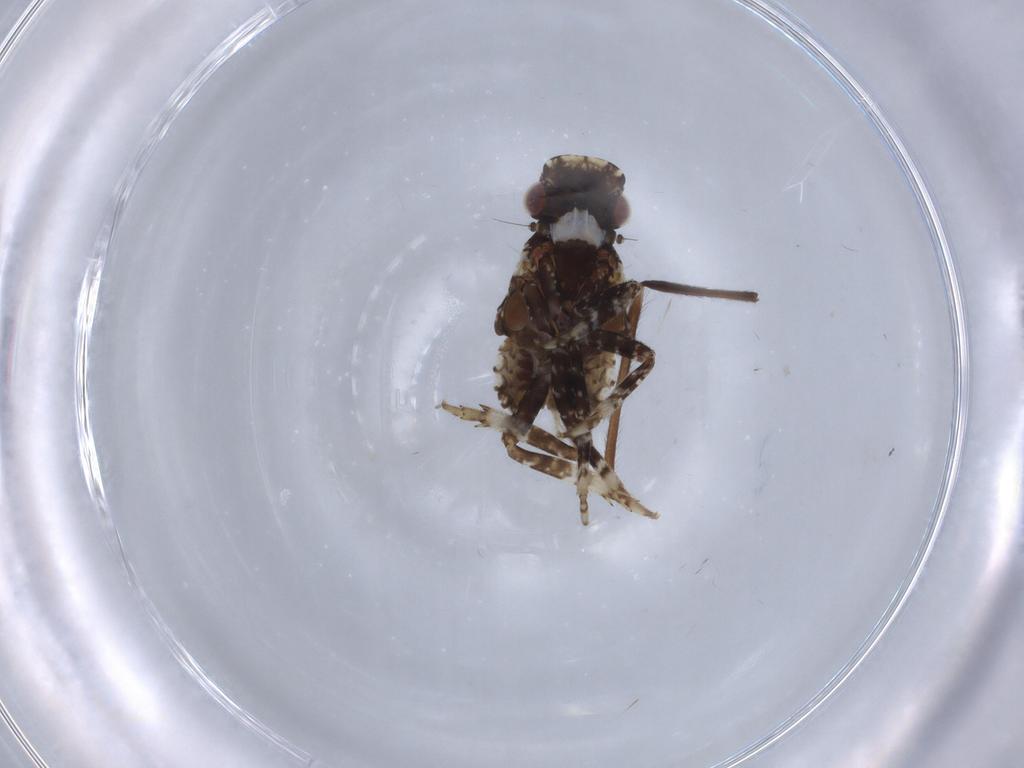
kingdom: Animalia
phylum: Arthropoda
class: Insecta
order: Hemiptera
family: Fulgoridae
